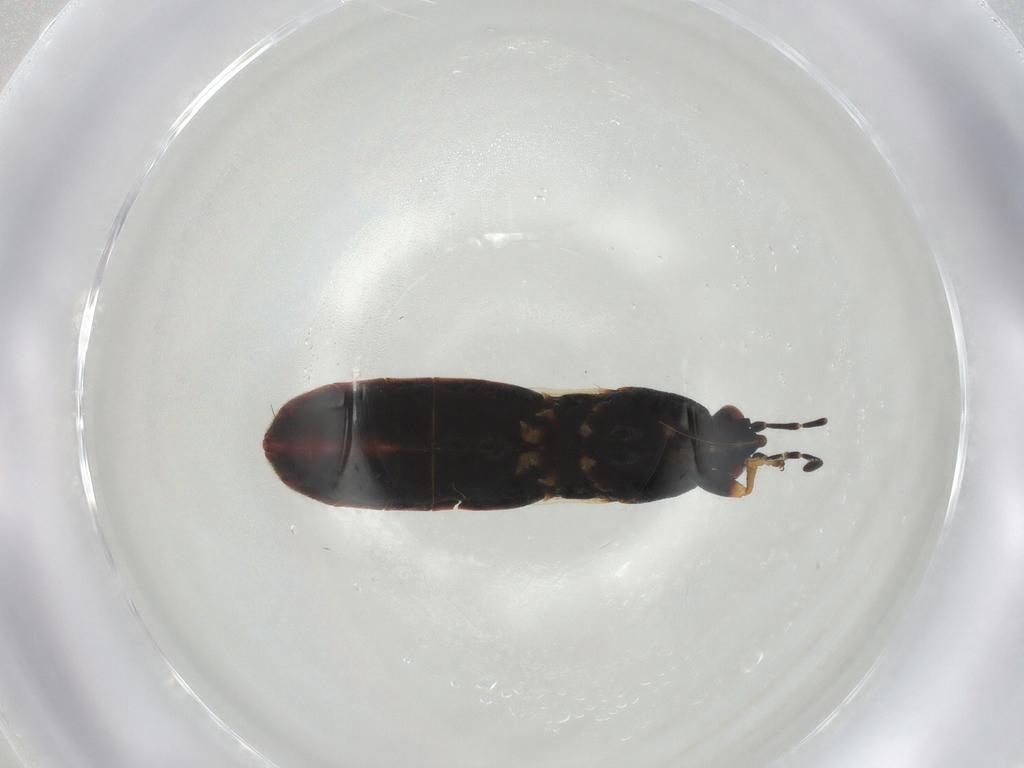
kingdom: Animalia
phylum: Arthropoda
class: Insecta
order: Hemiptera
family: Blissidae
